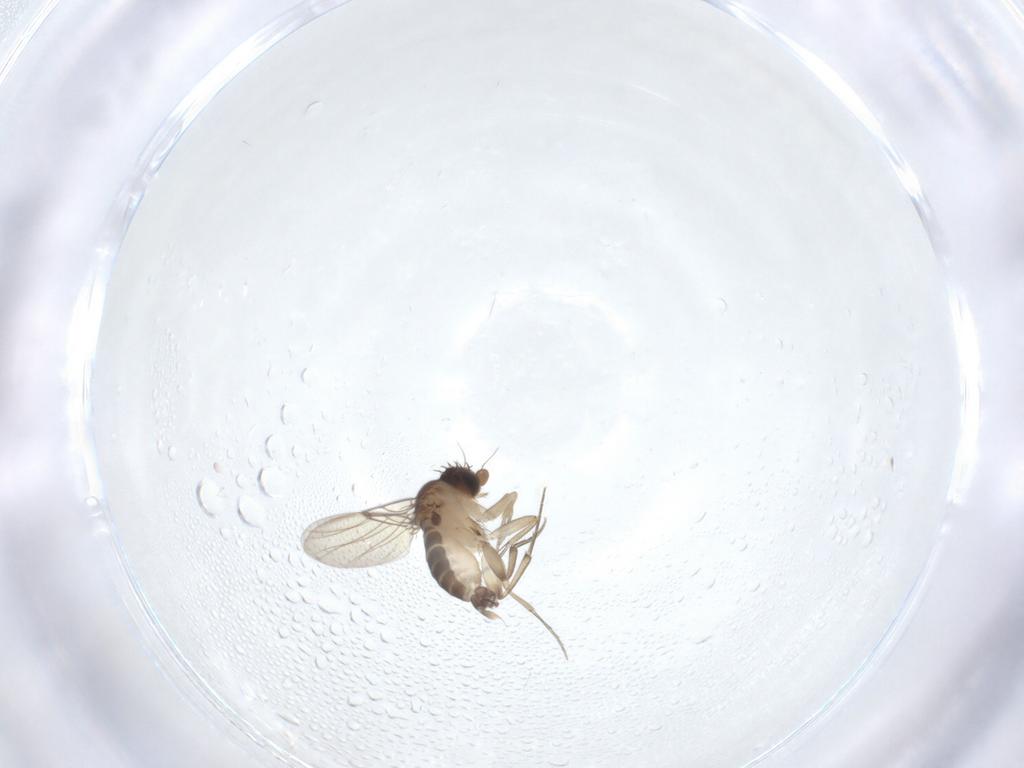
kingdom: Animalia
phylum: Arthropoda
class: Insecta
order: Diptera
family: Phoridae
